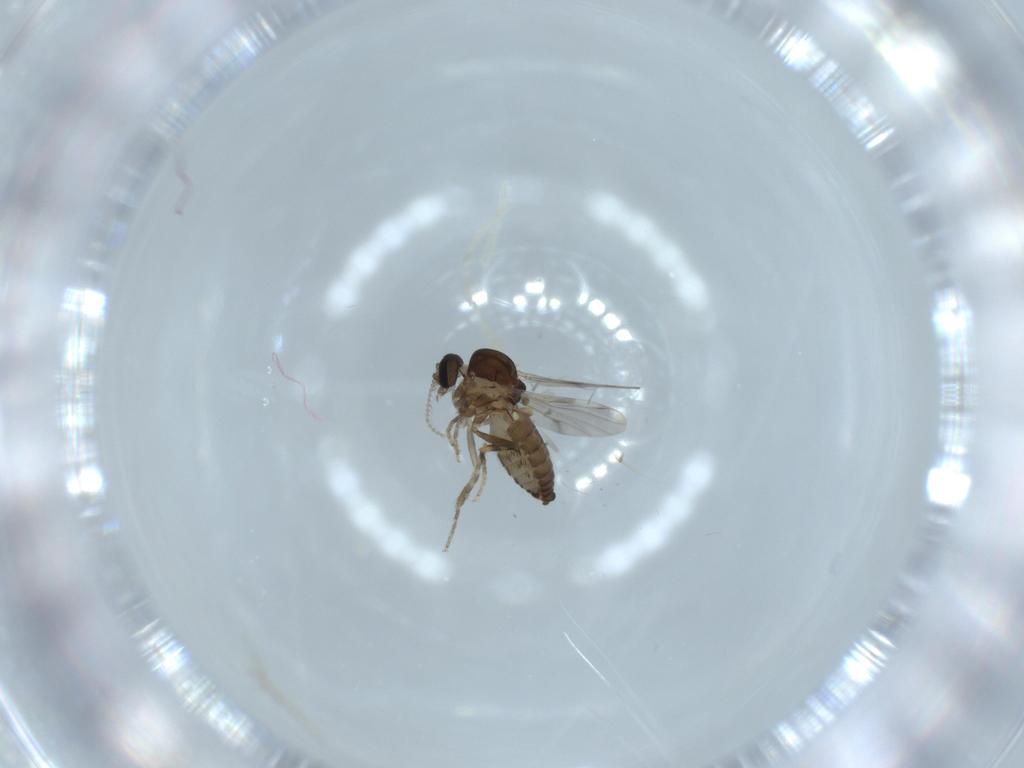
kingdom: Animalia
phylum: Arthropoda
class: Insecta
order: Diptera
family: Ceratopogonidae
